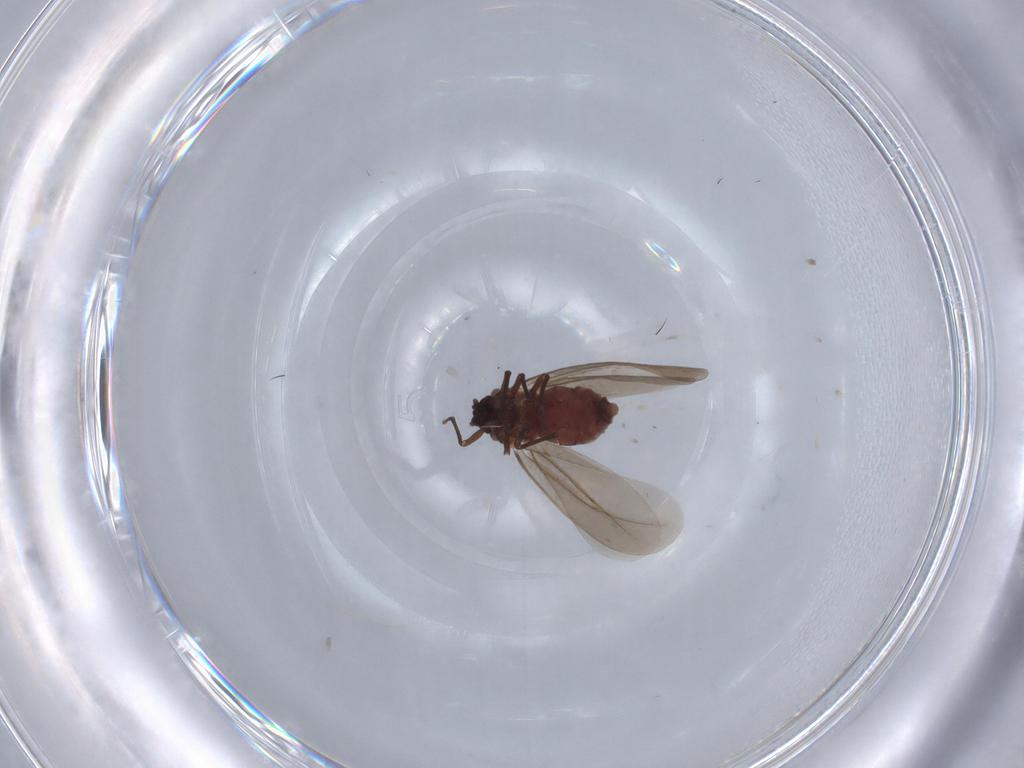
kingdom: Animalia
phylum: Arthropoda
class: Insecta
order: Hemiptera
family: Aleyrodidae
